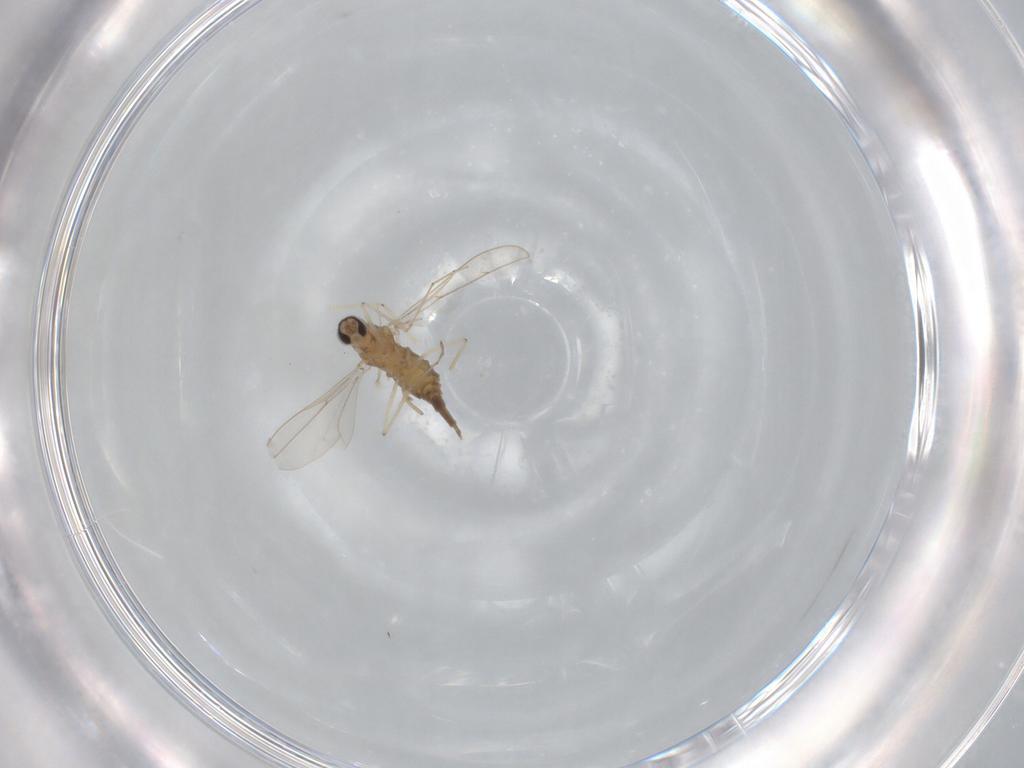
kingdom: Animalia
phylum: Arthropoda
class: Insecta
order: Diptera
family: Cecidomyiidae
